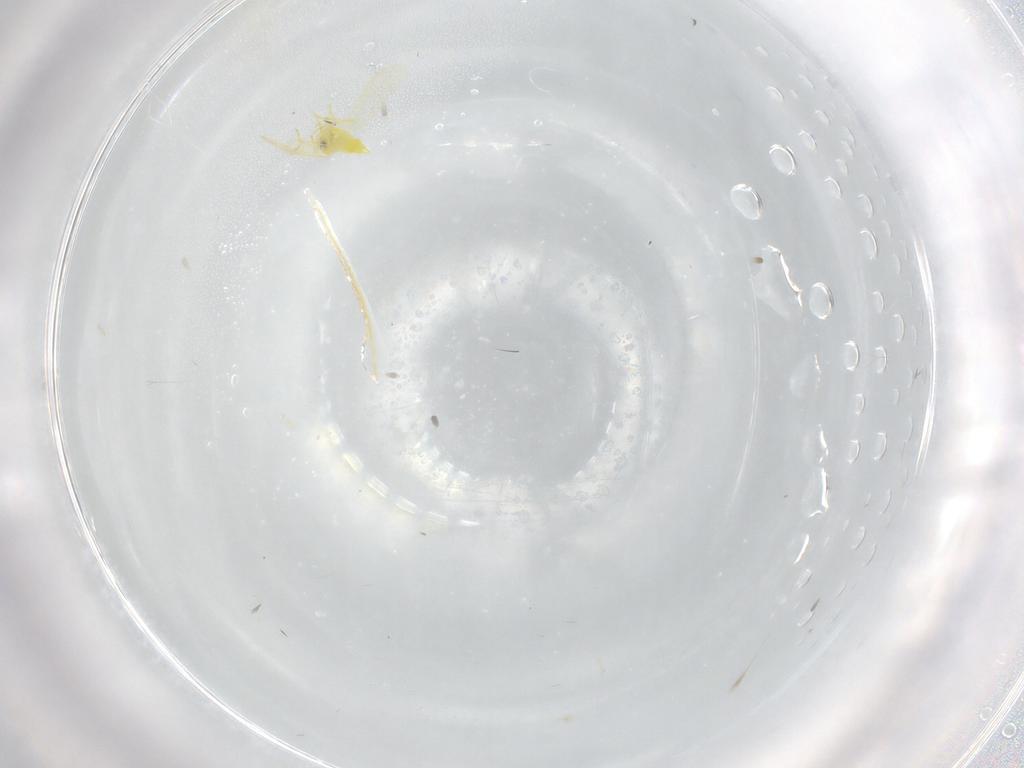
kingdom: Animalia
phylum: Arthropoda
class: Insecta
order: Hemiptera
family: Aleyrodidae
